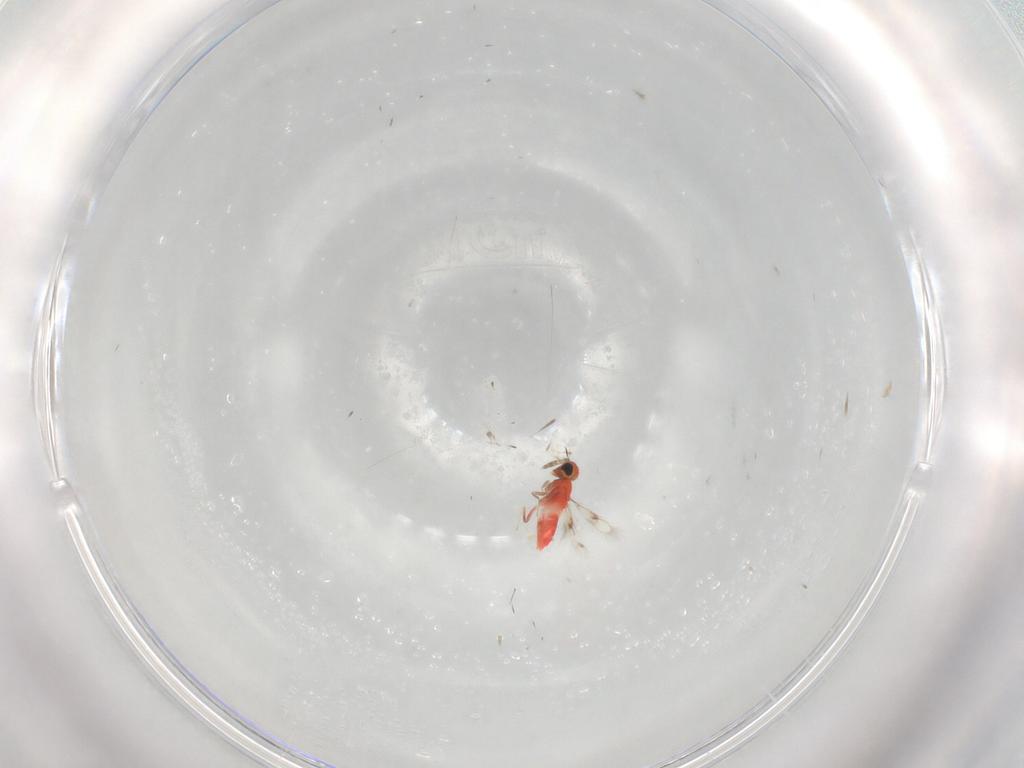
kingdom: Animalia
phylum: Arthropoda
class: Insecta
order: Hymenoptera
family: Trichogrammatidae
